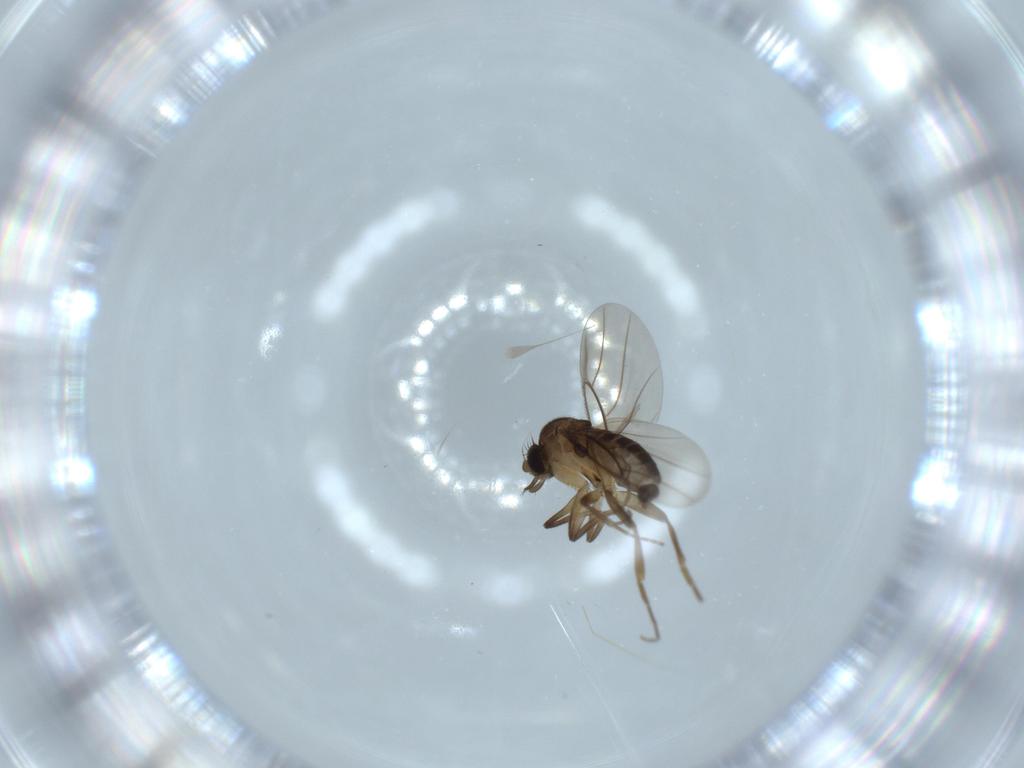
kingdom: Animalia
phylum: Arthropoda
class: Insecta
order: Diptera
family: Phoridae
